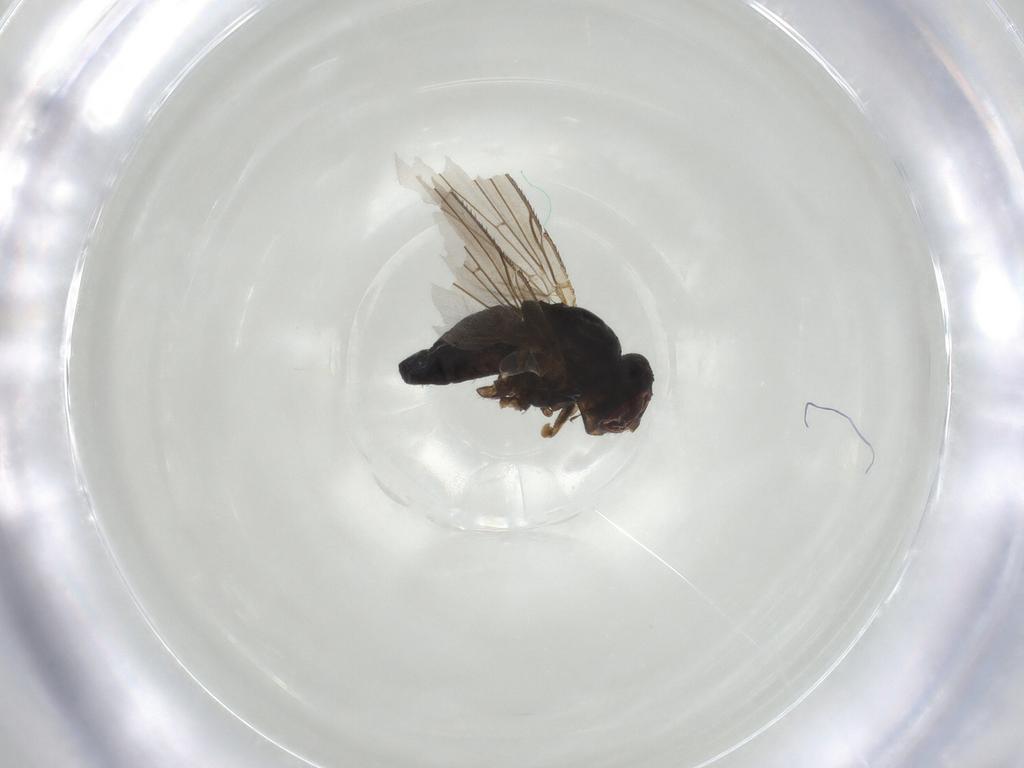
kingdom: Animalia
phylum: Arthropoda
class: Insecta
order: Diptera
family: Calliphoridae
